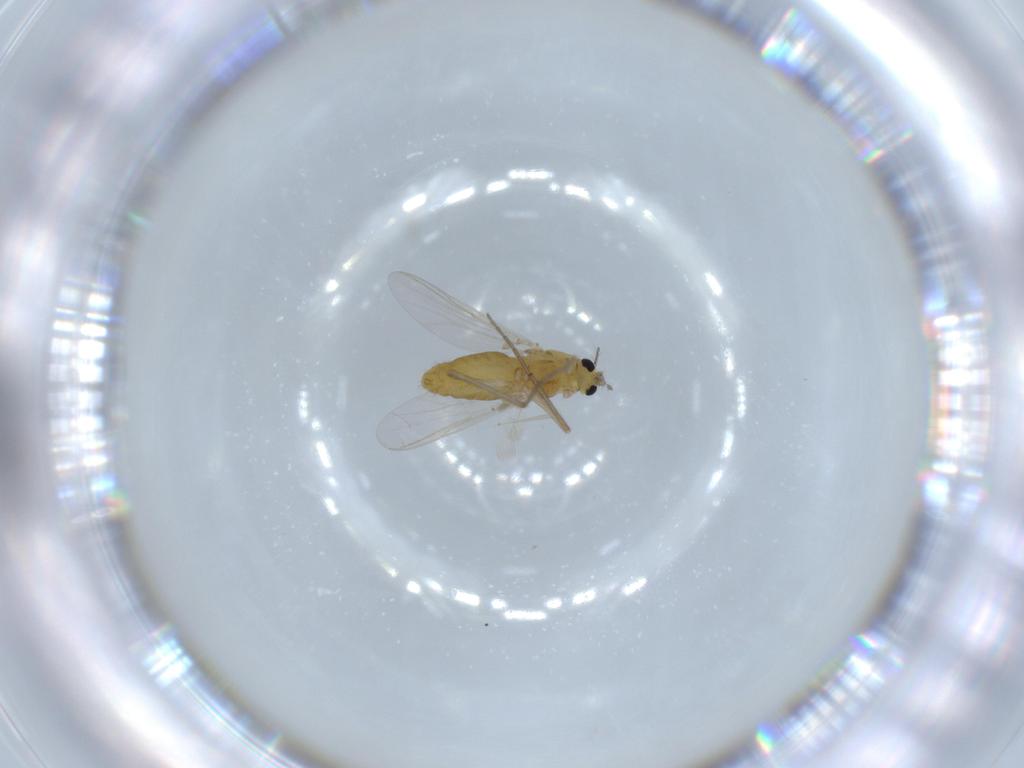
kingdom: Animalia
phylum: Arthropoda
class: Insecta
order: Diptera
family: Chironomidae
